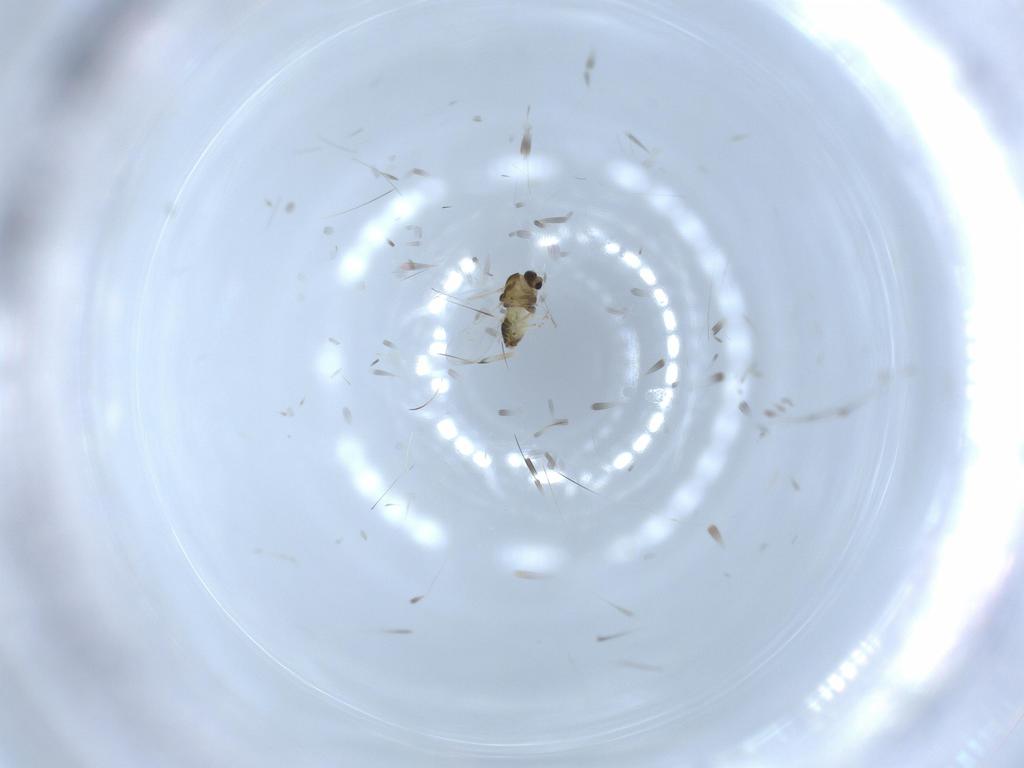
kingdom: Animalia
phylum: Arthropoda
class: Insecta
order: Diptera
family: Chironomidae
